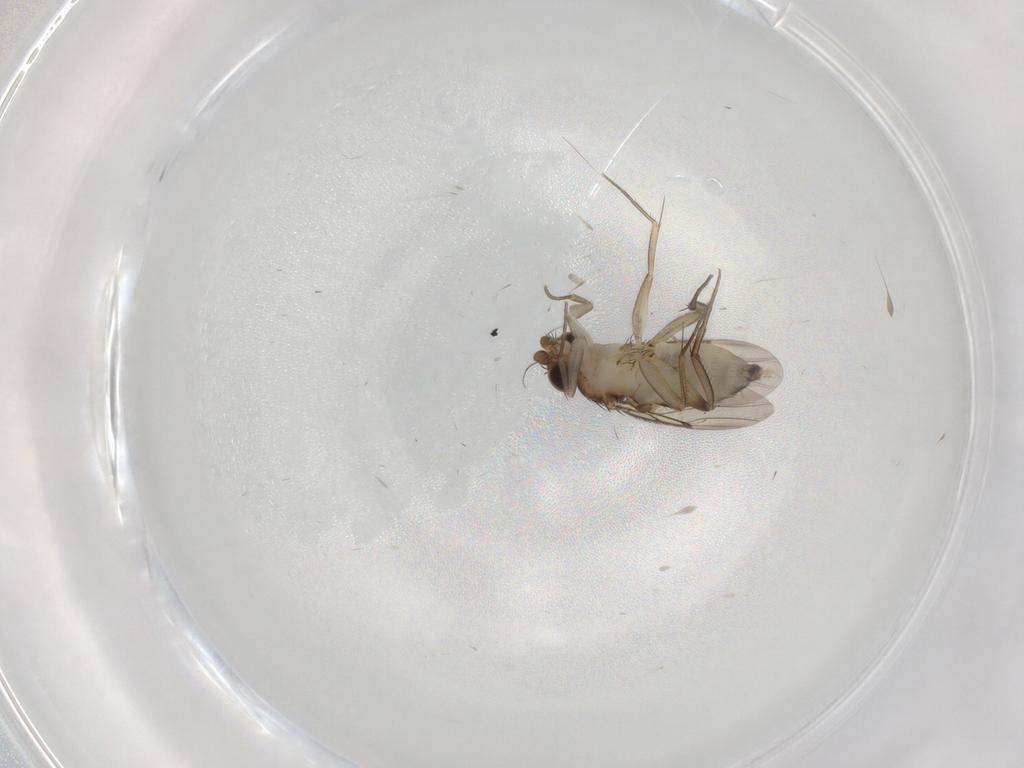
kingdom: Animalia
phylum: Arthropoda
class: Insecta
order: Diptera
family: Phoridae
